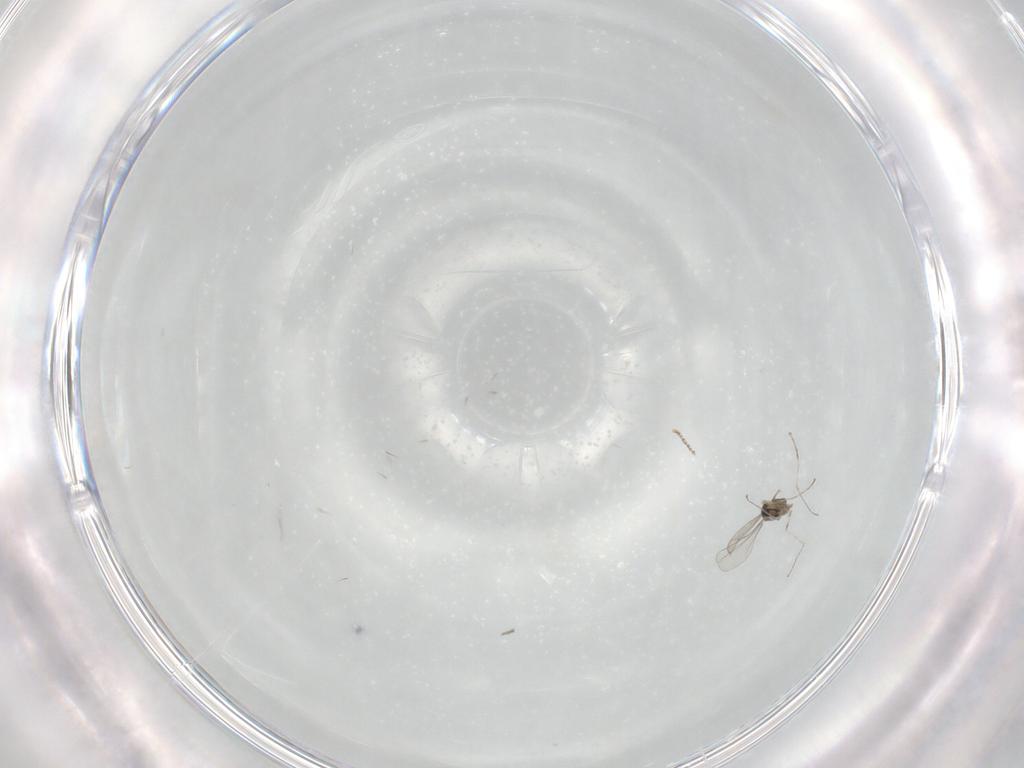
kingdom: Animalia
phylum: Arthropoda
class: Insecta
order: Diptera
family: Cecidomyiidae
